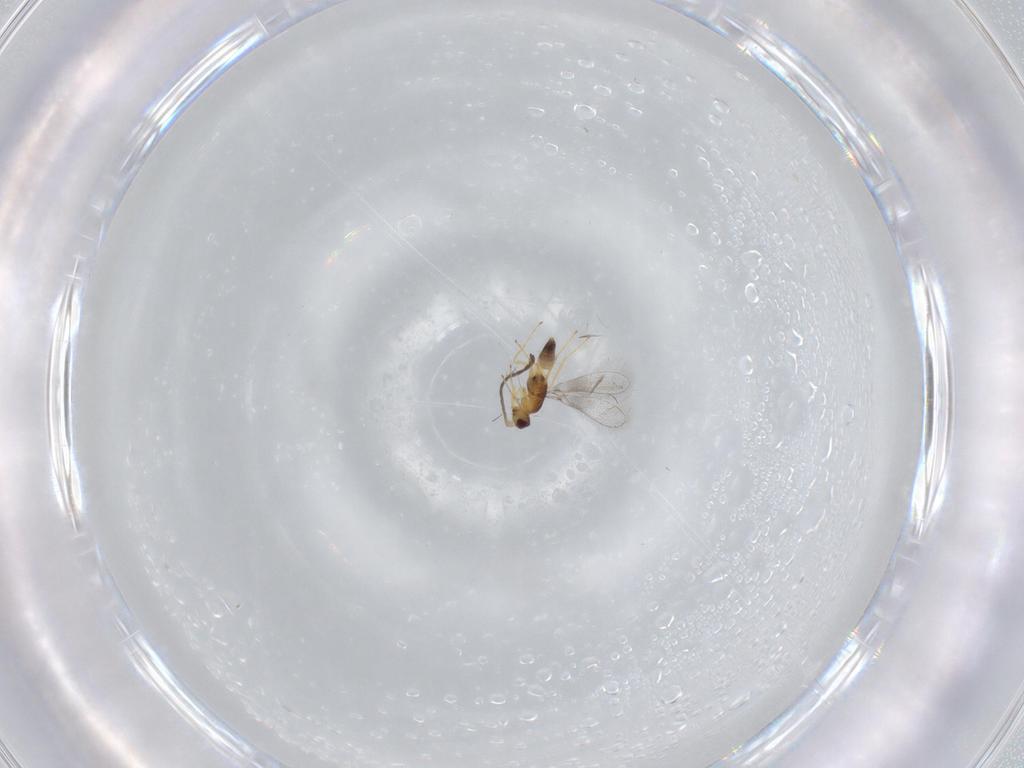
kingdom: Animalia
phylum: Arthropoda
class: Insecta
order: Hymenoptera
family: Eulophidae
